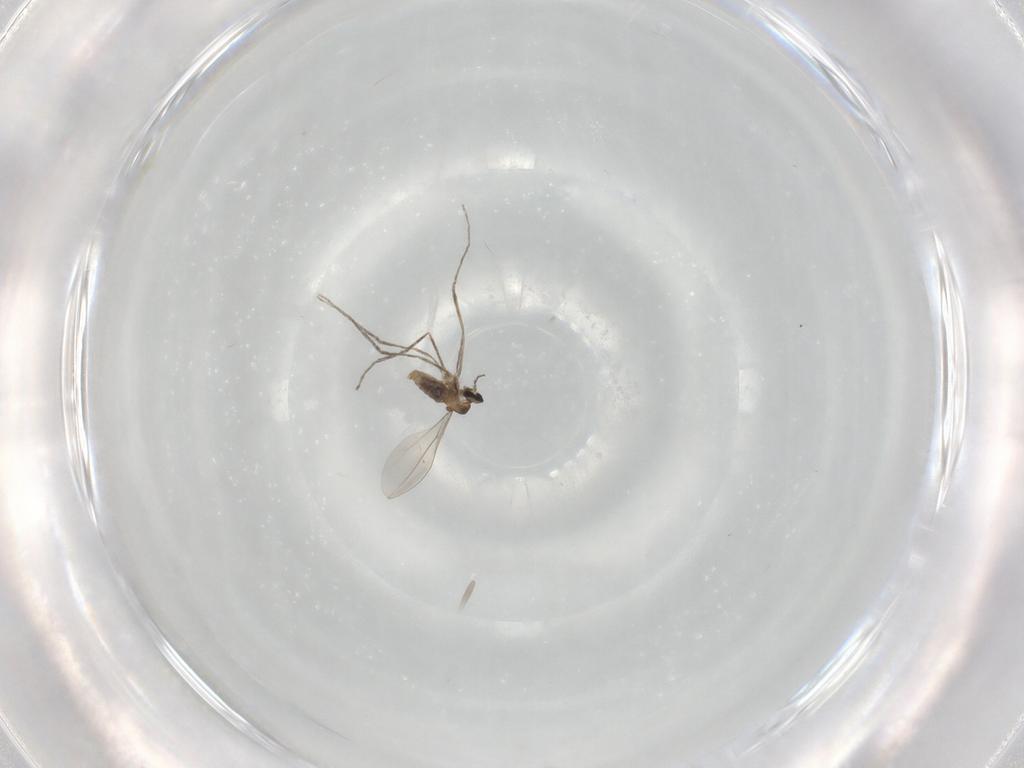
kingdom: Animalia
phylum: Arthropoda
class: Insecta
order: Diptera
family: Cecidomyiidae
